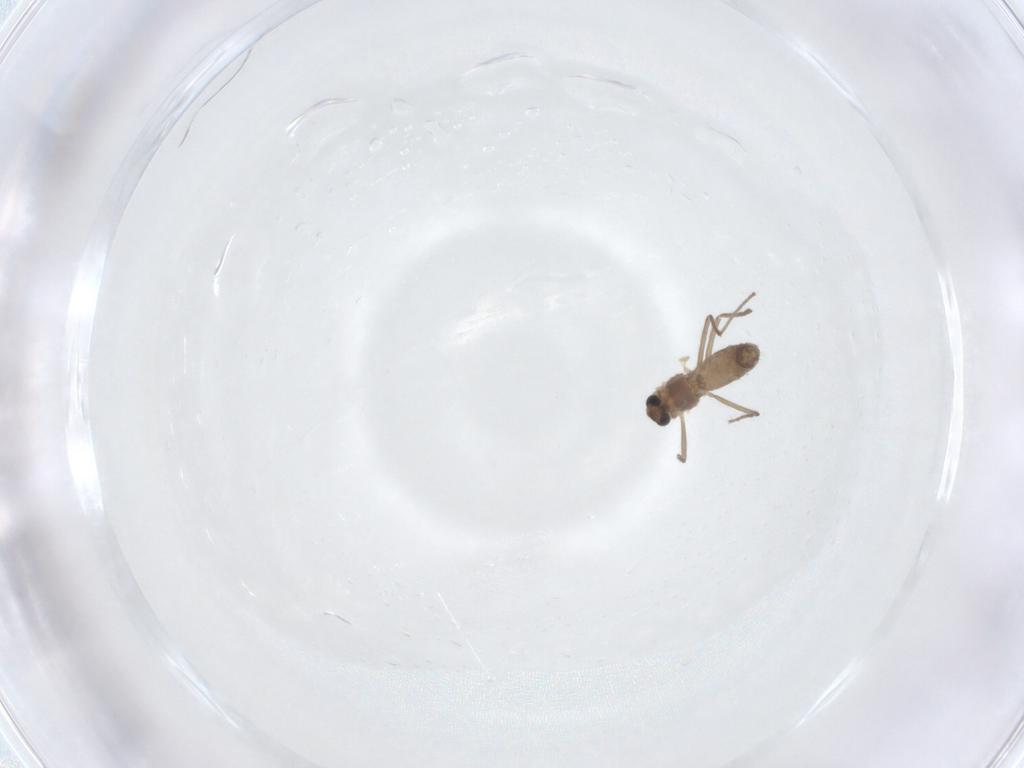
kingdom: Animalia
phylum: Arthropoda
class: Insecta
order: Diptera
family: Chironomidae
